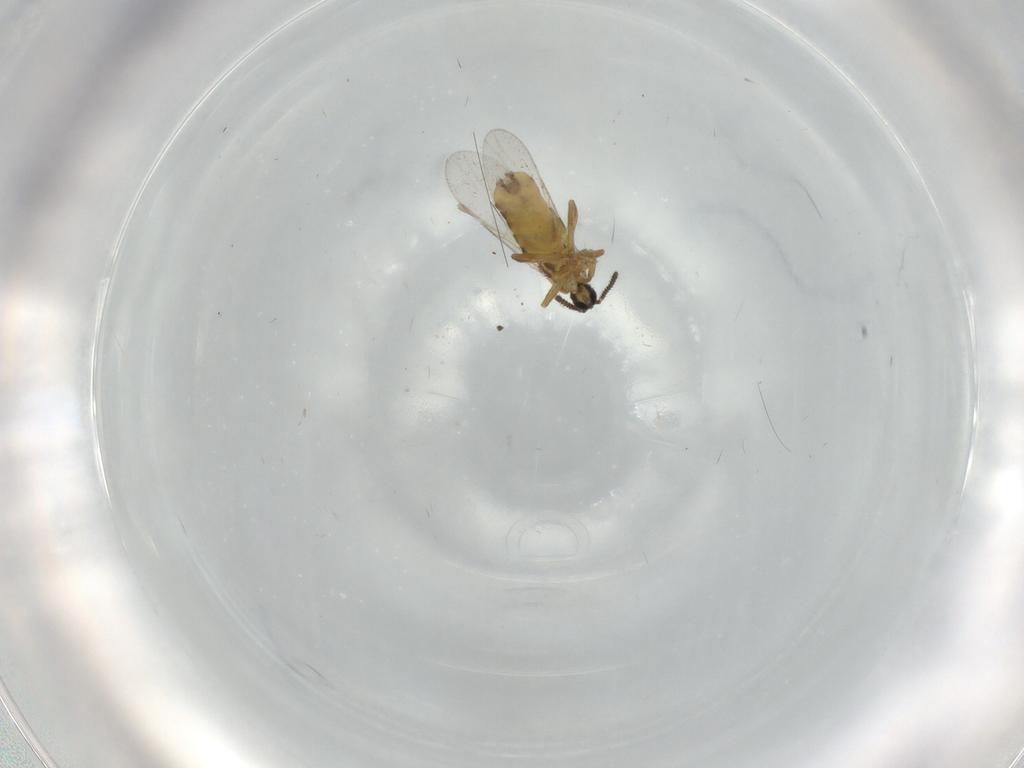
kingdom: Animalia
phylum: Arthropoda
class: Insecta
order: Diptera
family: Scatopsidae
